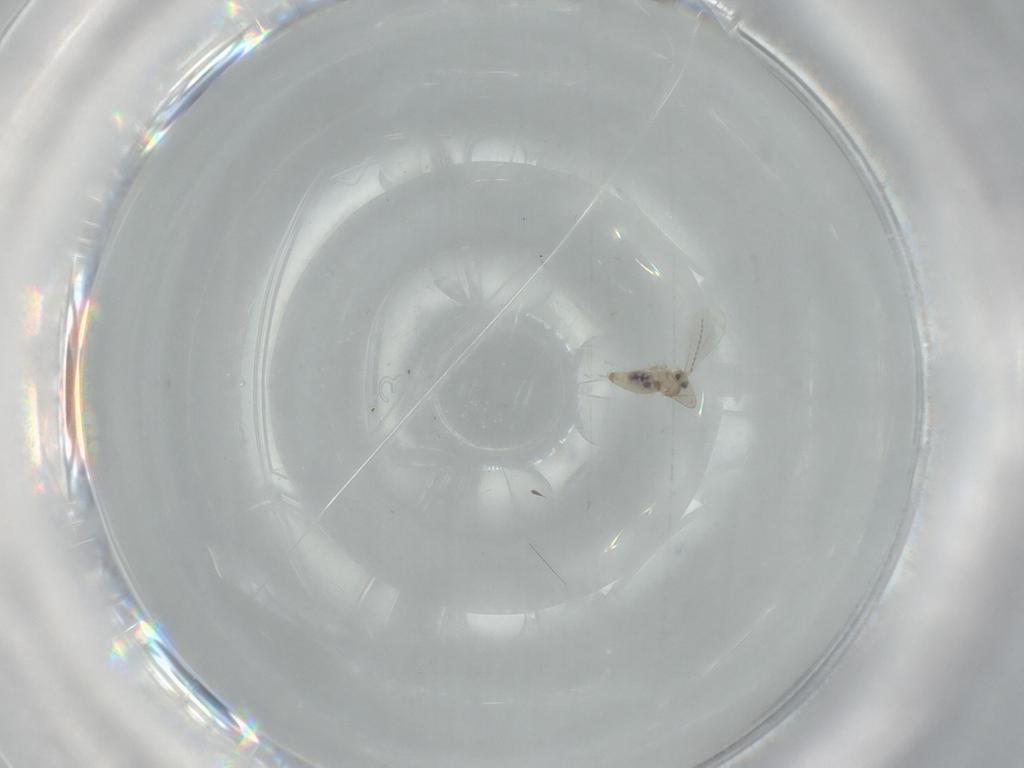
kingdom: Animalia
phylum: Arthropoda
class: Insecta
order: Diptera
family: Cecidomyiidae
